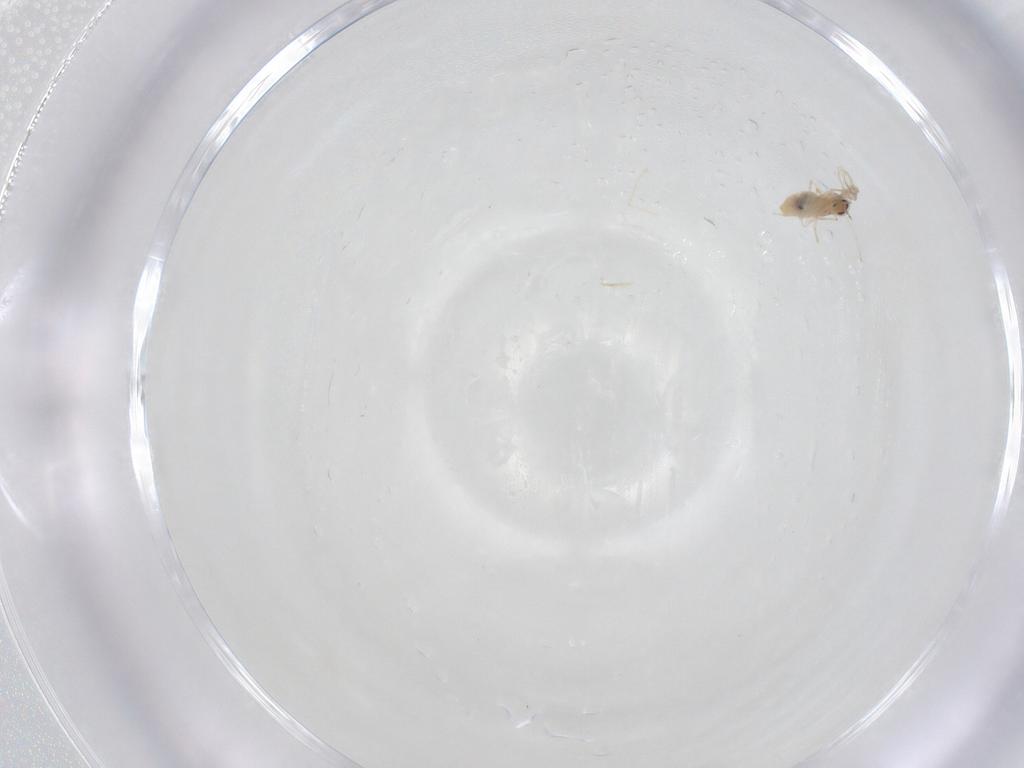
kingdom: Animalia
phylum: Arthropoda
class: Insecta
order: Diptera
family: Cecidomyiidae
